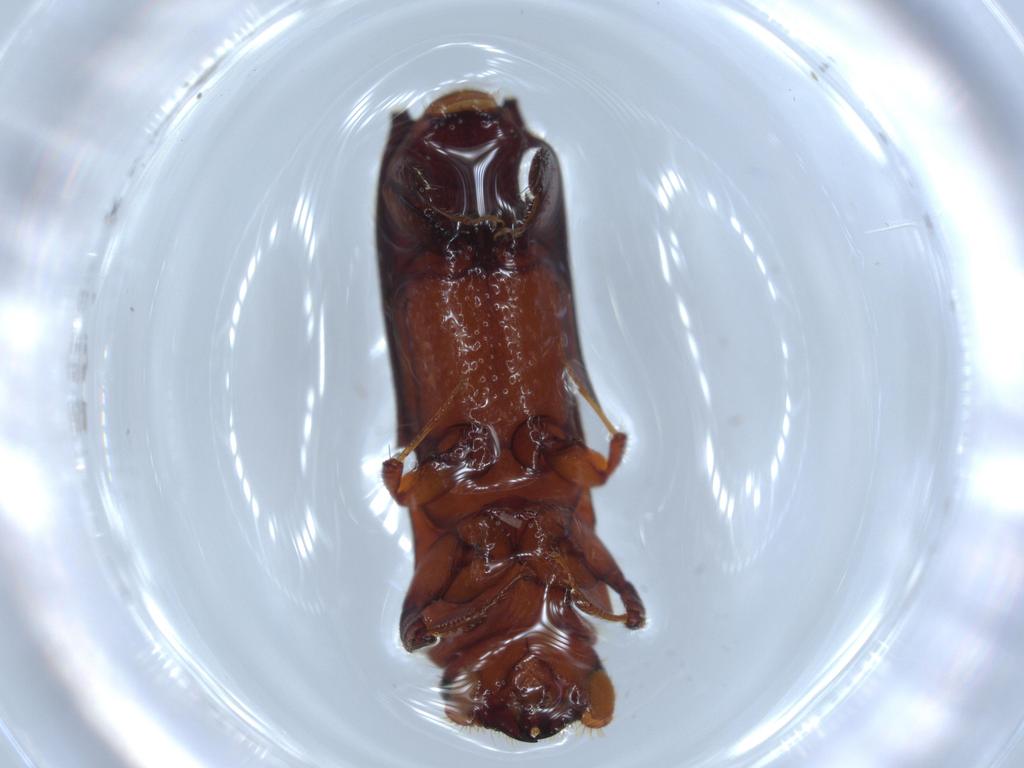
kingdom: Animalia
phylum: Arthropoda
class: Insecta
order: Coleoptera
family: Curculionidae
